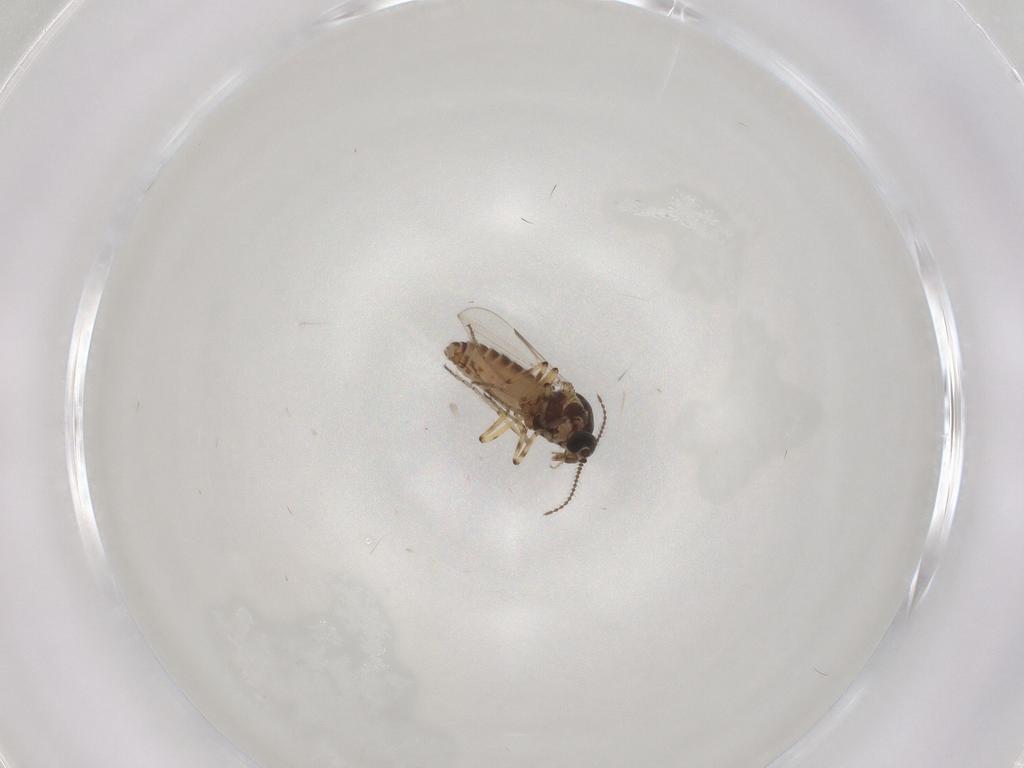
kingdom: Animalia
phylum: Arthropoda
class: Insecta
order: Diptera
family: Ceratopogonidae
